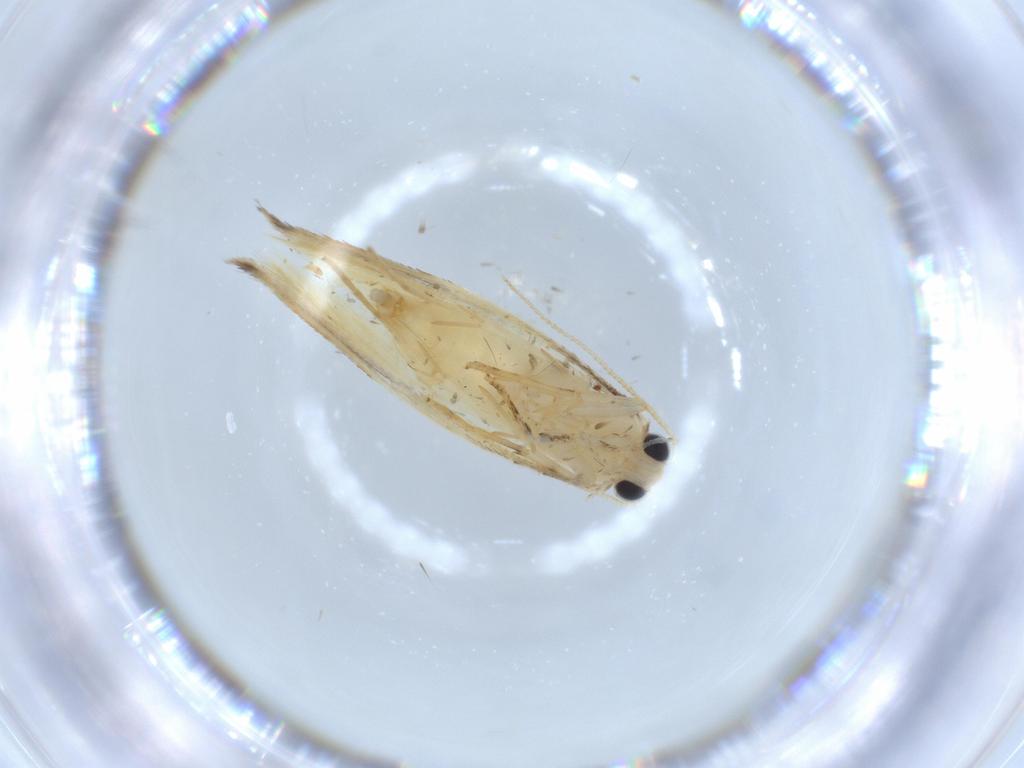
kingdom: Animalia
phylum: Arthropoda
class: Insecta
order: Lepidoptera
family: Tineidae
